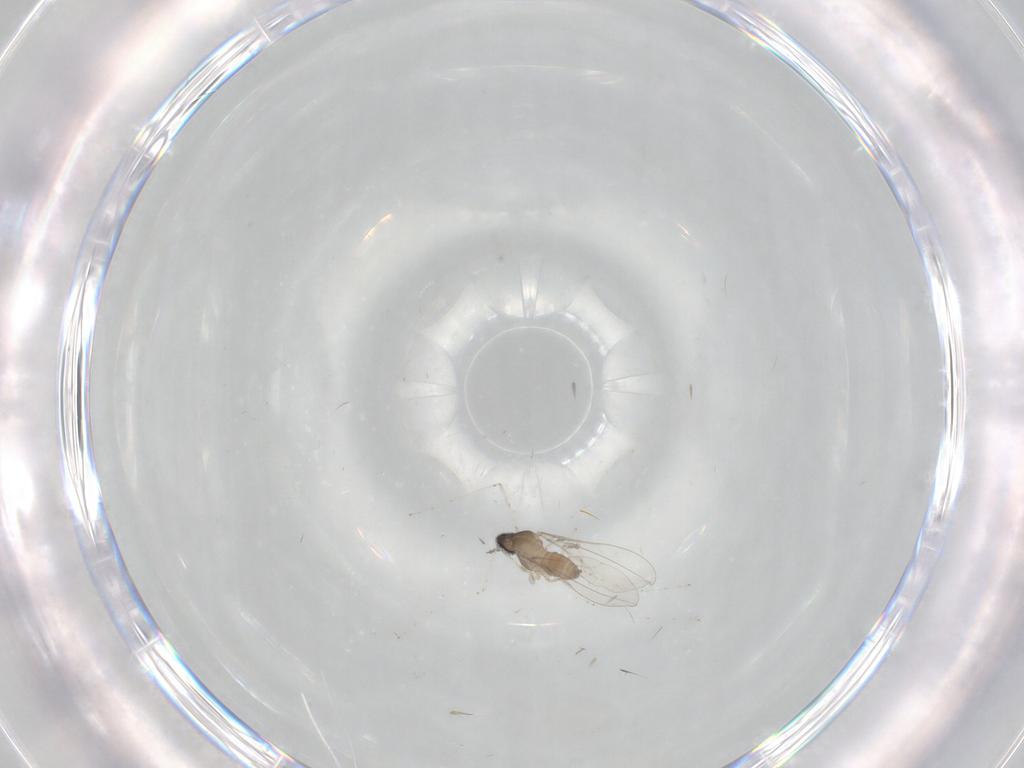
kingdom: Animalia
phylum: Arthropoda
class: Insecta
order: Diptera
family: Cecidomyiidae
